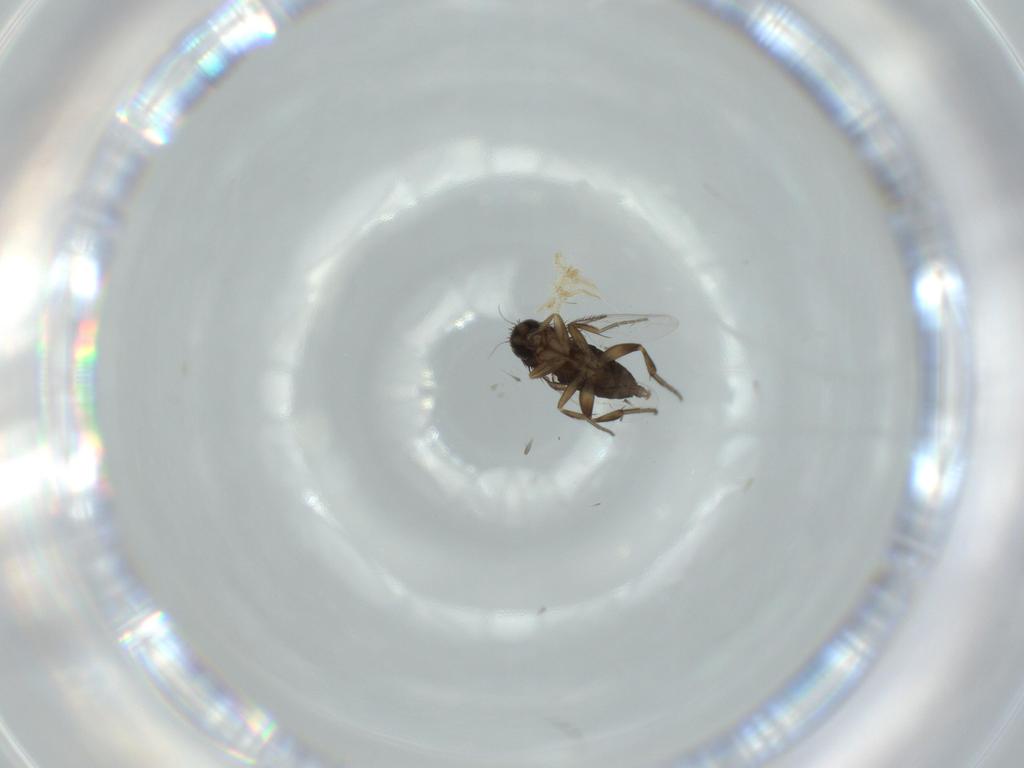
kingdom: Animalia
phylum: Arthropoda
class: Insecta
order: Diptera
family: Phoridae
